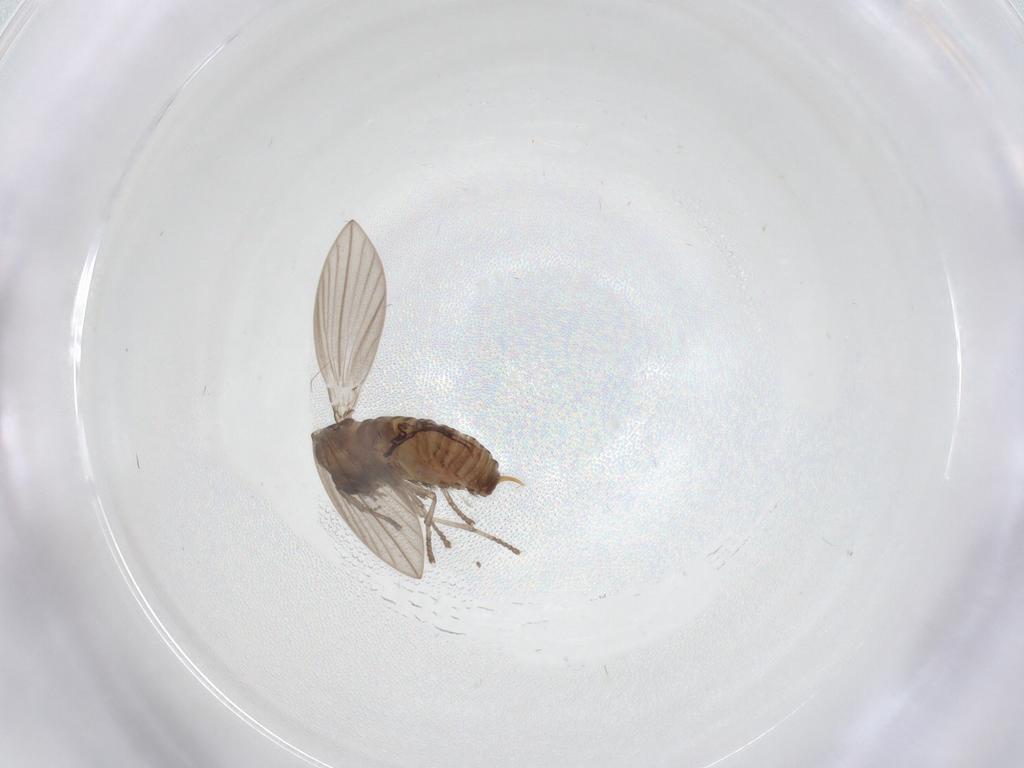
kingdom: Animalia
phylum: Arthropoda
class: Insecta
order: Diptera
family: Psychodidae
